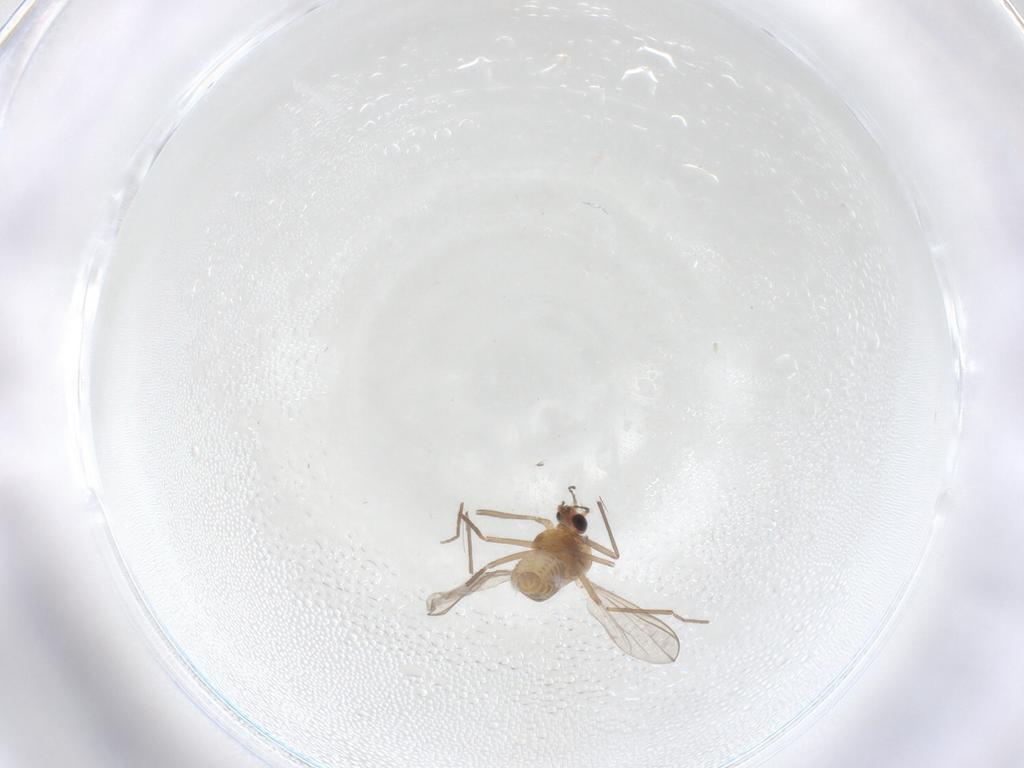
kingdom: Animalia
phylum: Arthropoda
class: Insecta
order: Diptera
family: Chironomidae
